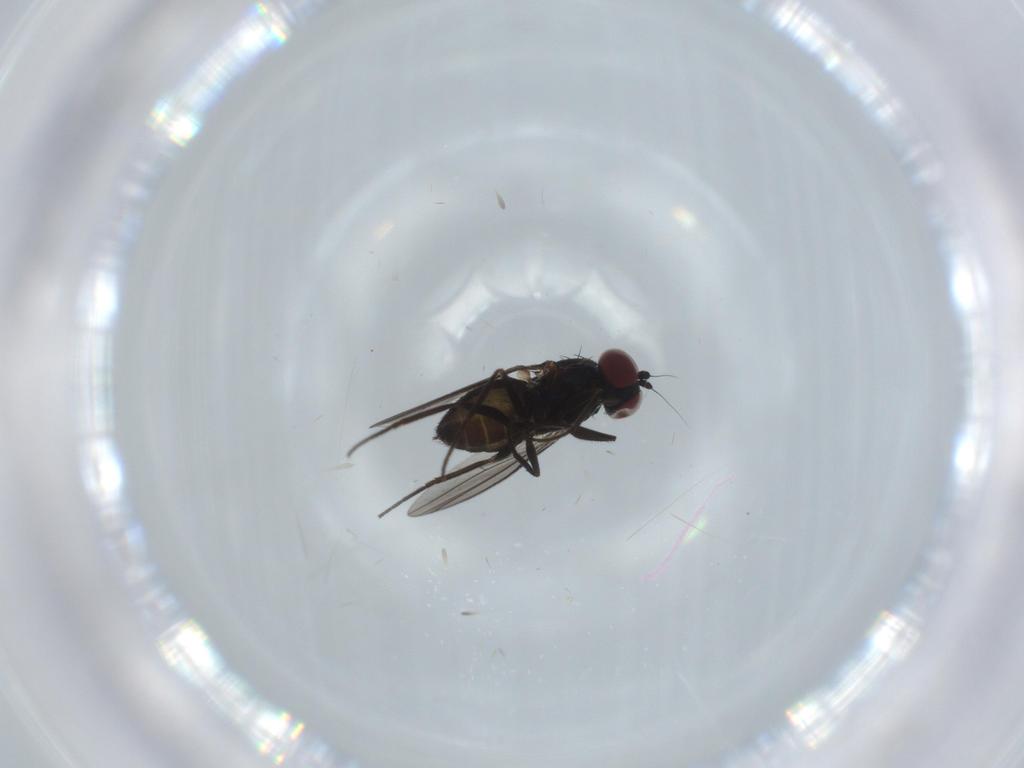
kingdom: Animalia
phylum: Arthropoda
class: Insecta
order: Diptera
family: Dolichopodidae
